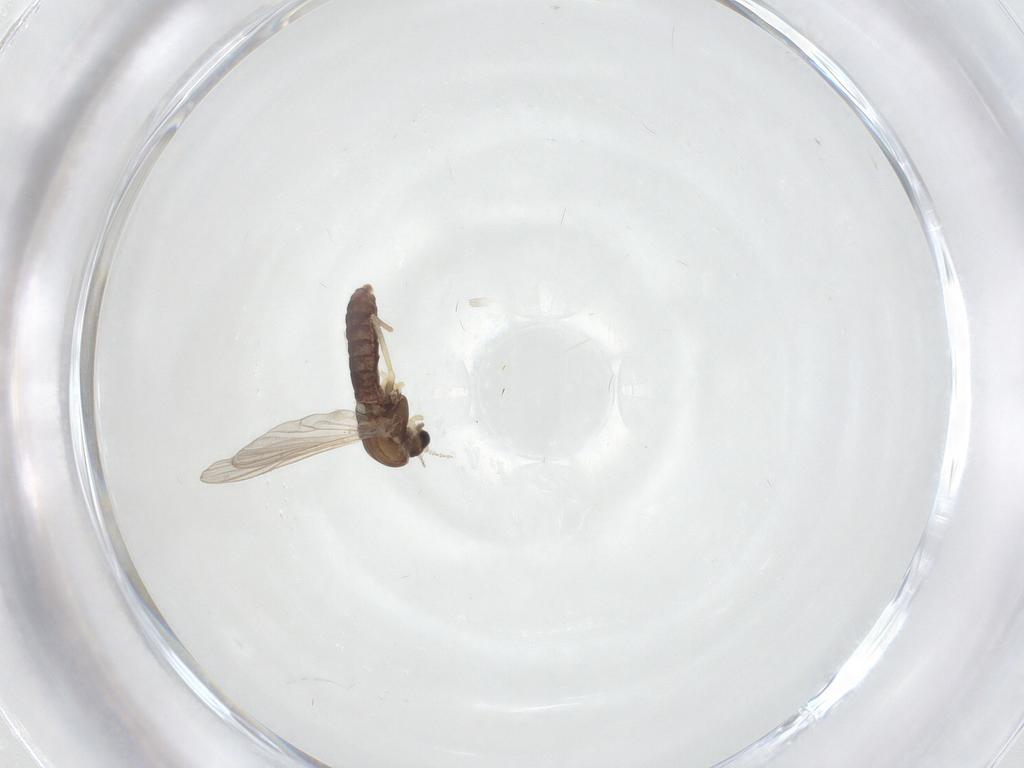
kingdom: Animalia
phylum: Arthropoda
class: Insecta
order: Diptera
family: Chironomidae
